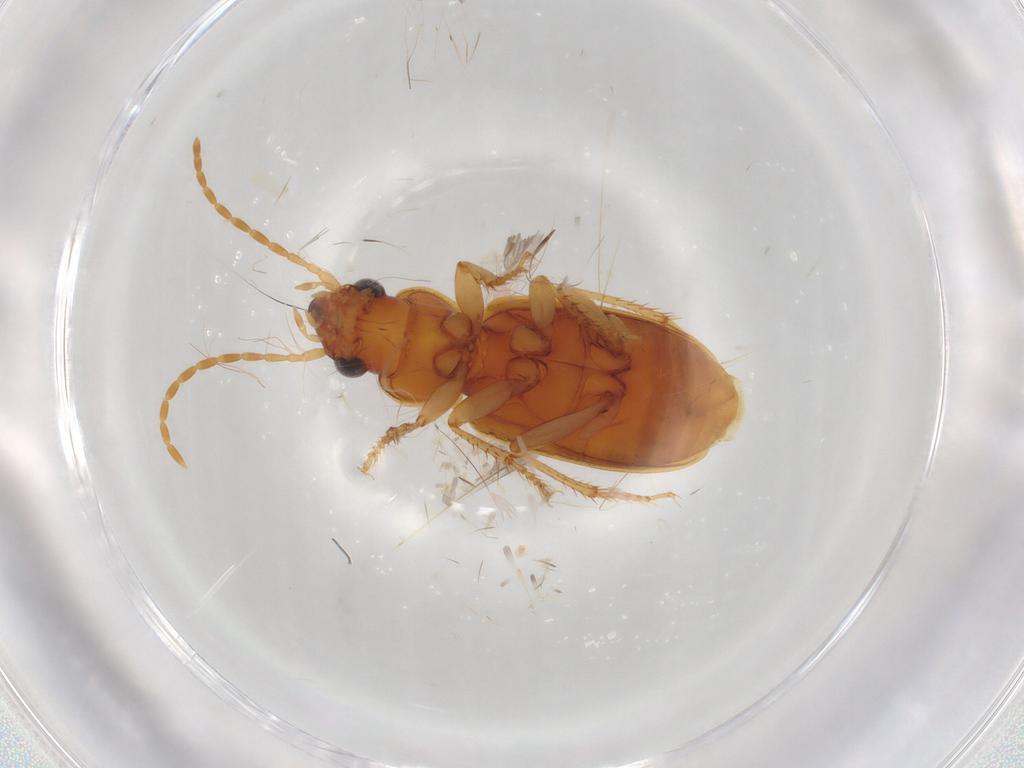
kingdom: Animalia
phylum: Arthropoda
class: Insecta
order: Coleoptera
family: Carabidae
